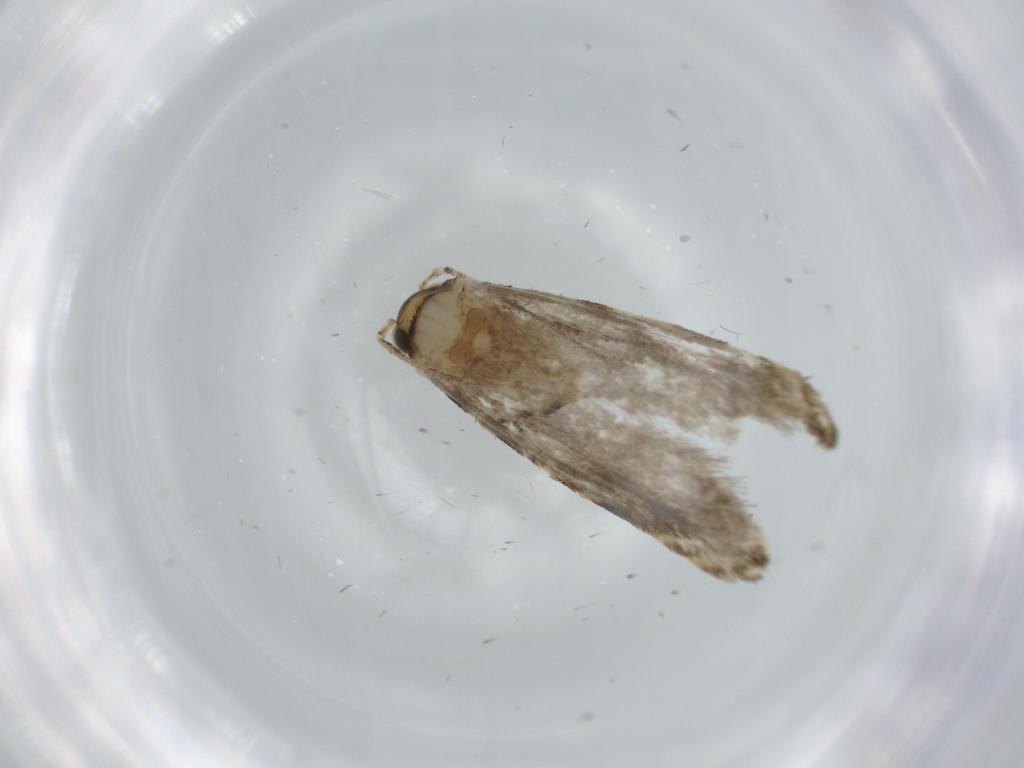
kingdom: Animalia
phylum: Arthropoda
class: Insecta
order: Lepidoptera
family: Tineidae
